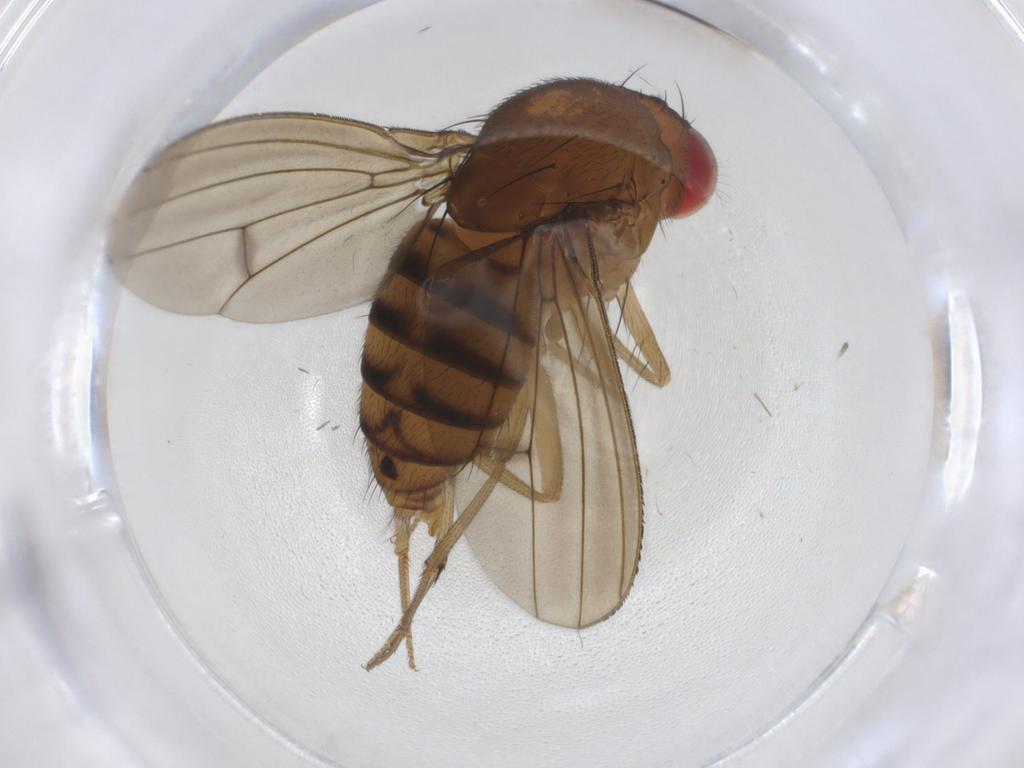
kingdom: Animalia
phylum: Arthropoda
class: Insecta
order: Diptera
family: Drosophilidae
